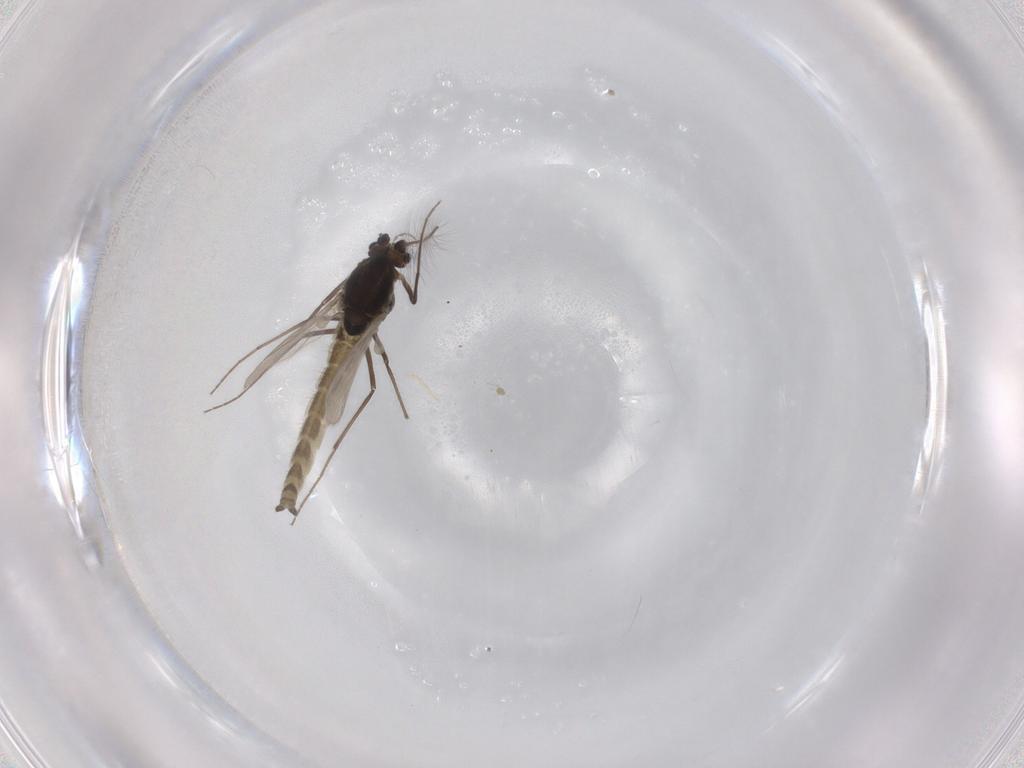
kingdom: Animalia
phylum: Arthropoda
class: Insecta
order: Diptera
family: Chironomidae
